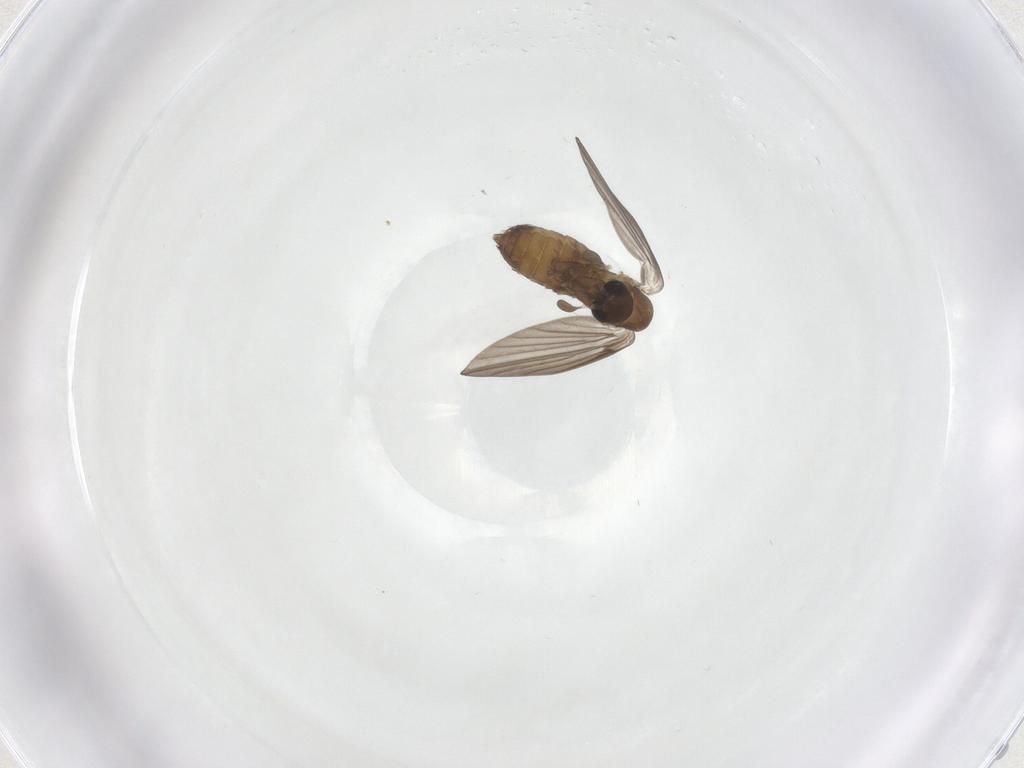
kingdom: Animalia
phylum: Arthropoda
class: Insecta
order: Diptera
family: Psychodidae
